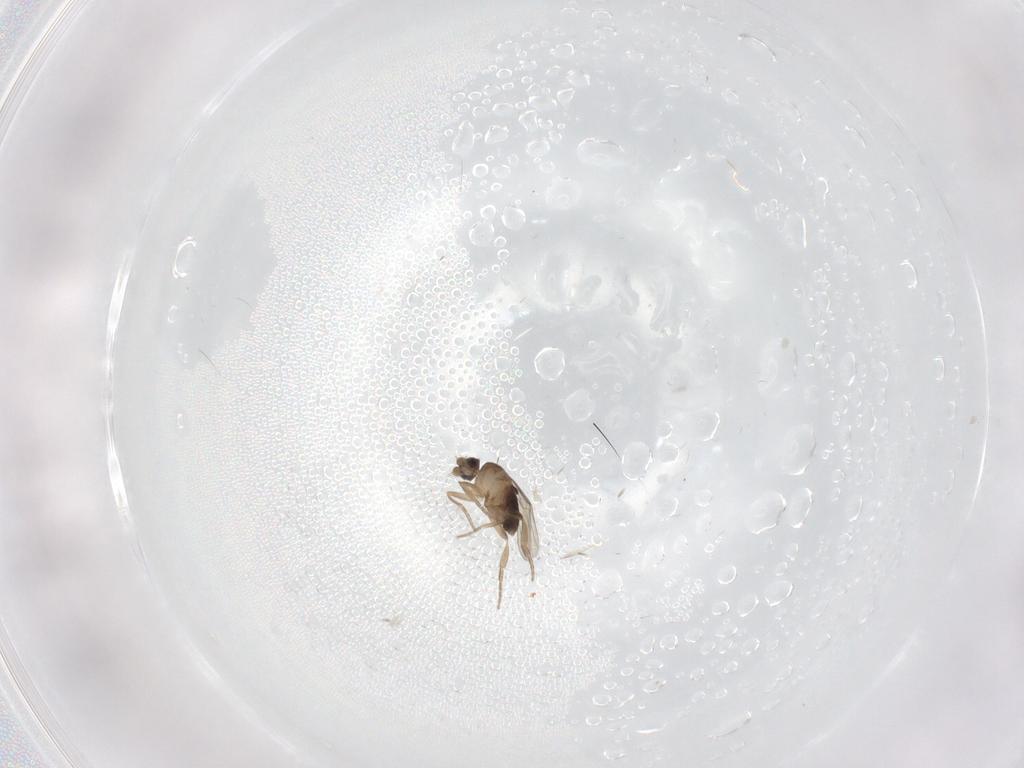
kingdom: Animalia
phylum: Arthropoda
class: Insecta
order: Diptera
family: Phoridae
